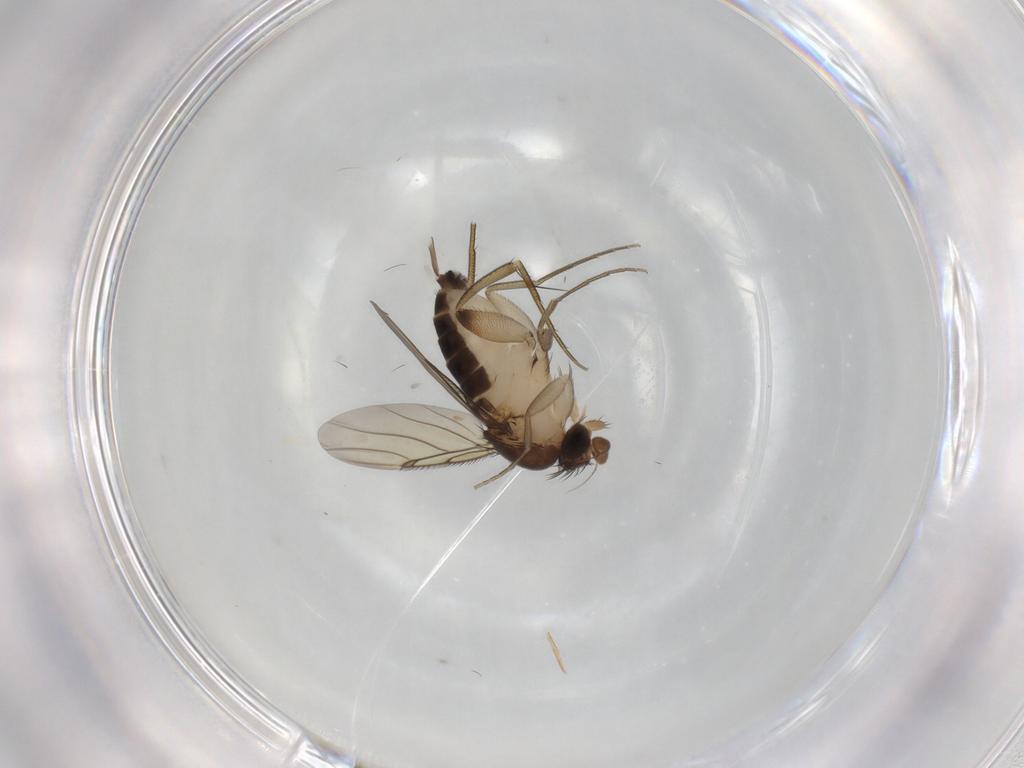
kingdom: Animalia
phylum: Arthropoda
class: Insecta
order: Diptera
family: Phoridae
